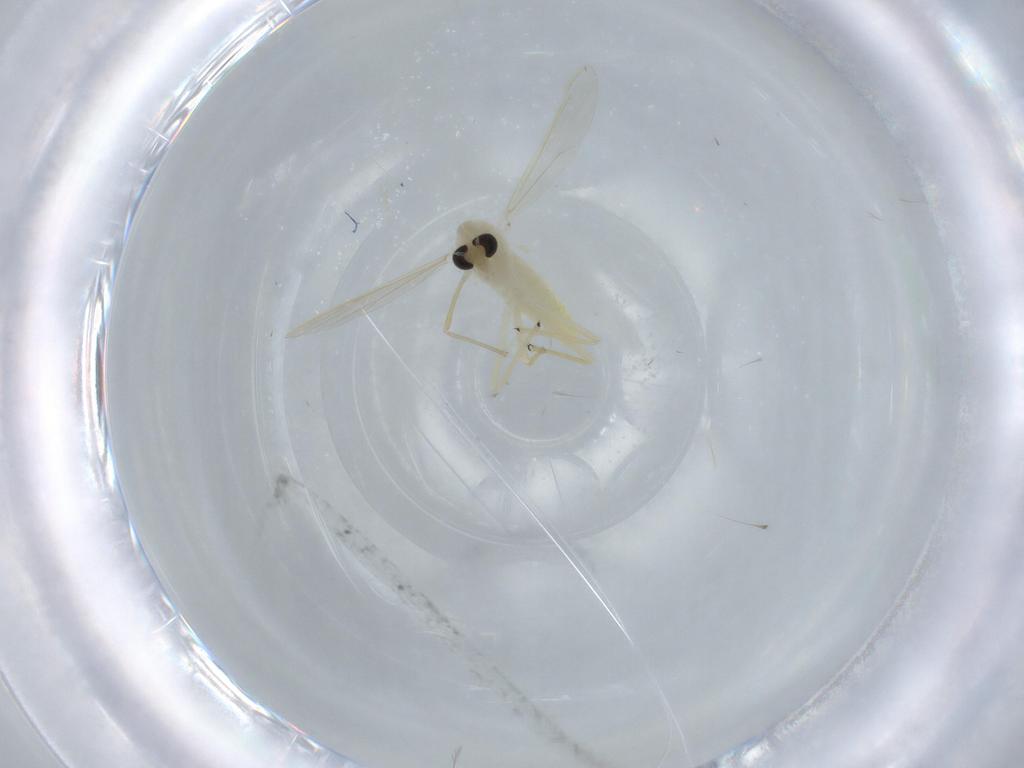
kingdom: Animalia
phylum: Arthropoda
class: Insecta
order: Diptera
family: Chironomidae
